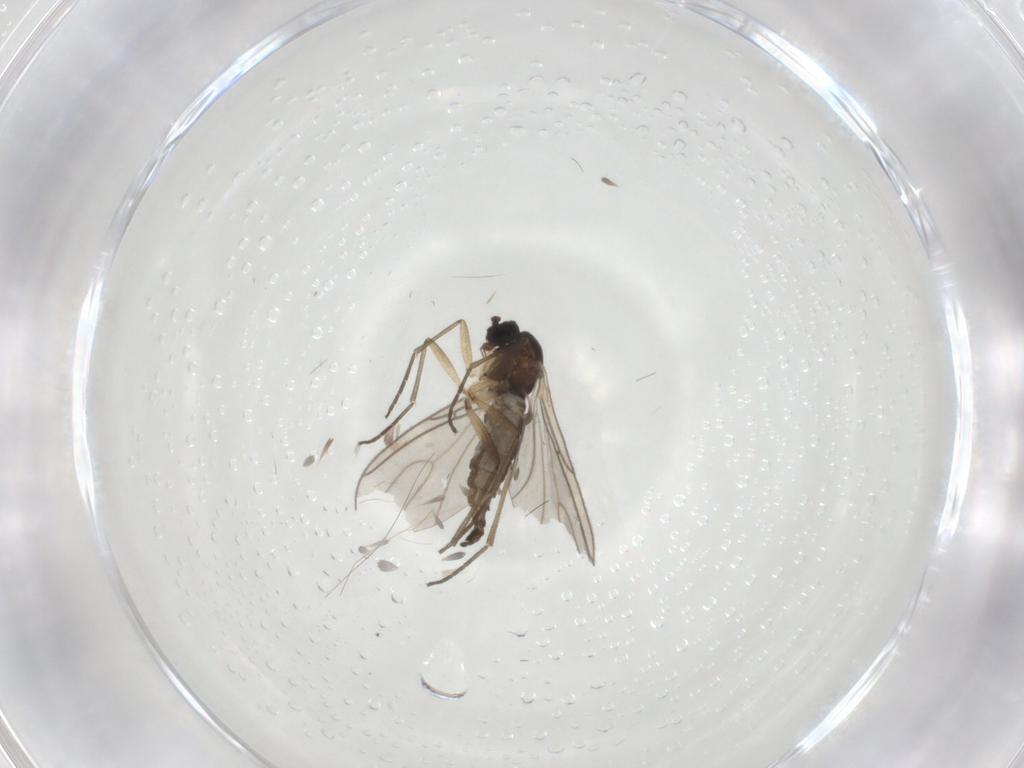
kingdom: Animalia
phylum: Arthropoda
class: Insecta
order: Diptera
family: Sciaridae
